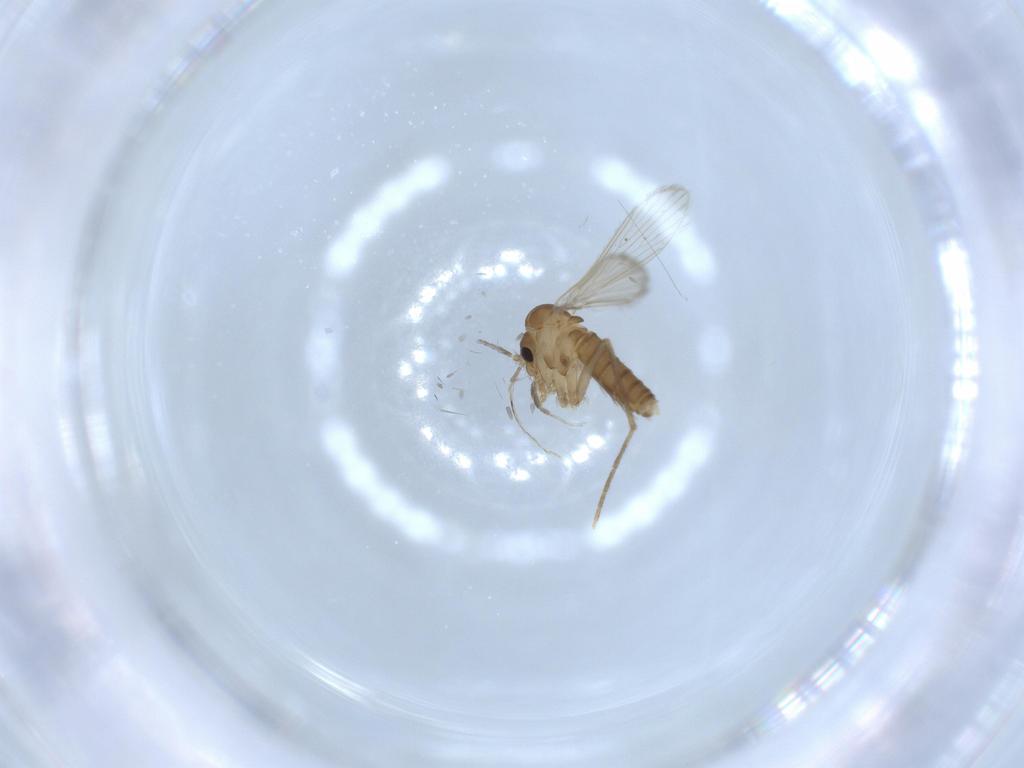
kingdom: Animalia
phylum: Arthropoda
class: Insecta
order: Diptera
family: Psychodidae
